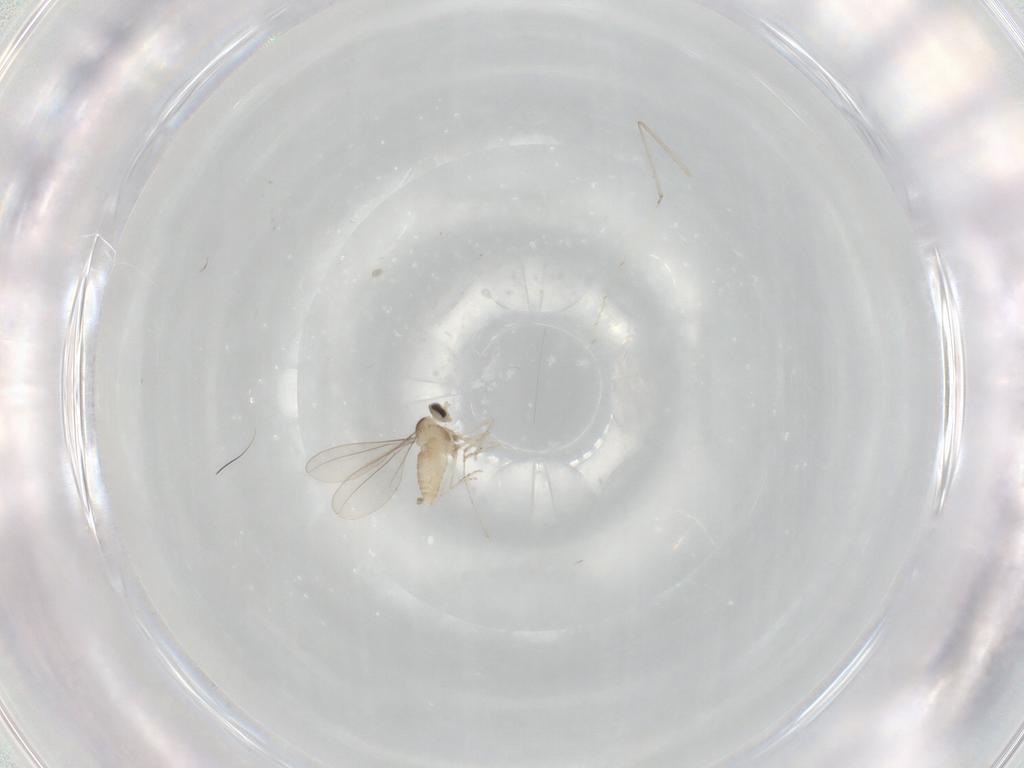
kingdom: Animalia
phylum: Arthropoda
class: Insecta
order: Diptera
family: Cecidomyiidae
